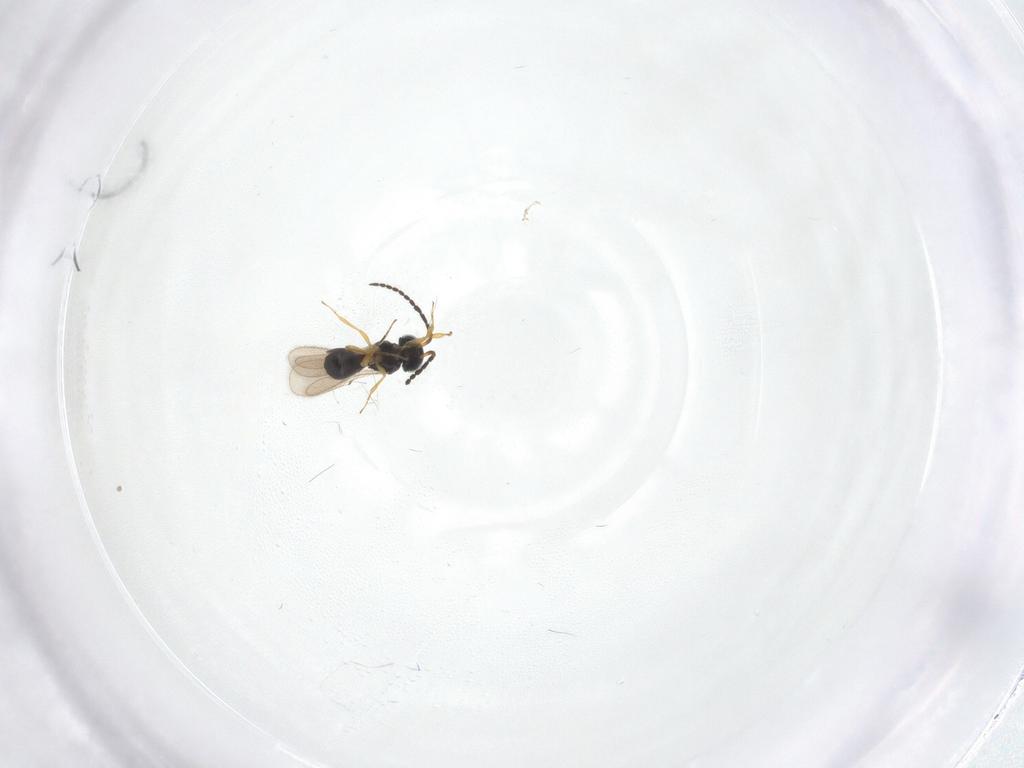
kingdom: Animalia
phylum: Arthropoda
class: Insecta
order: Hymenoptera
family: Scelionidae
